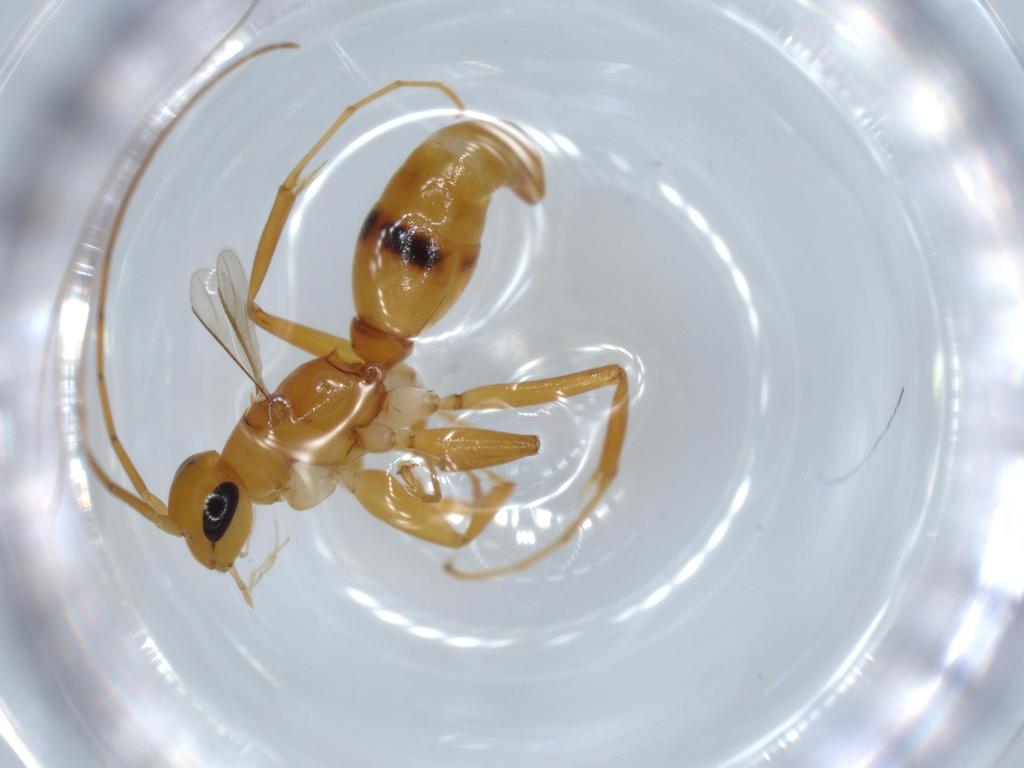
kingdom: Animalia
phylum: Arthropoda
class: Insecta
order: Hymenoptera
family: Rhopalosomatidae
